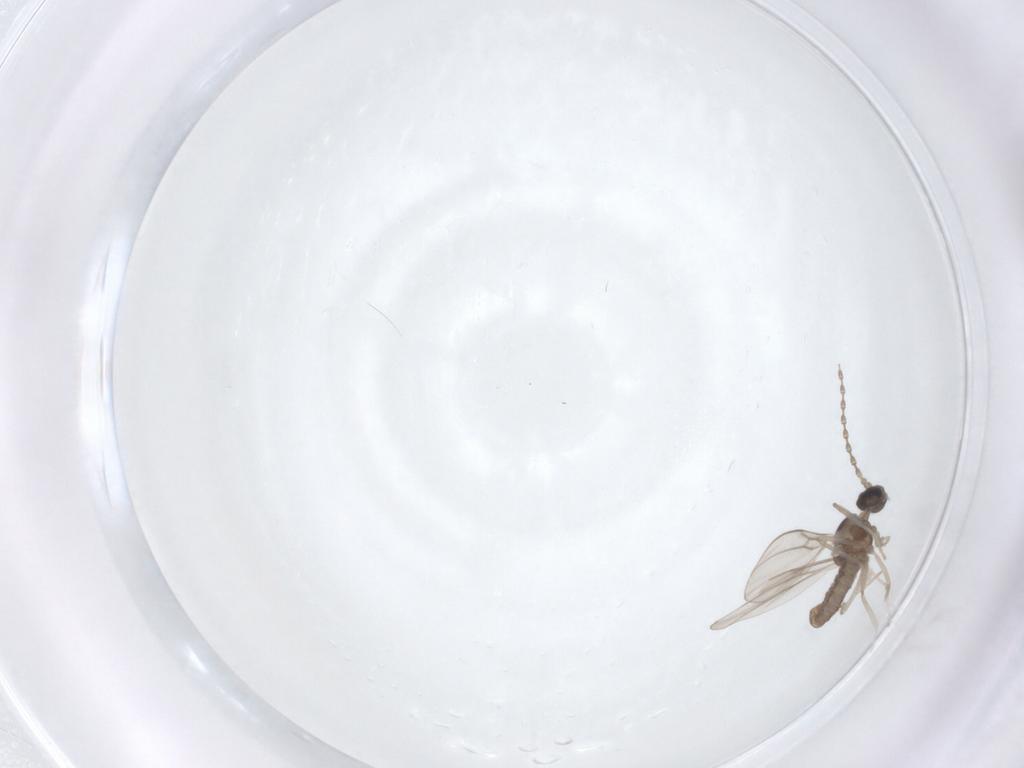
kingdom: Animalia
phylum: Arthropoda
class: Insecta
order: Diptera
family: Cecidomyiidae
